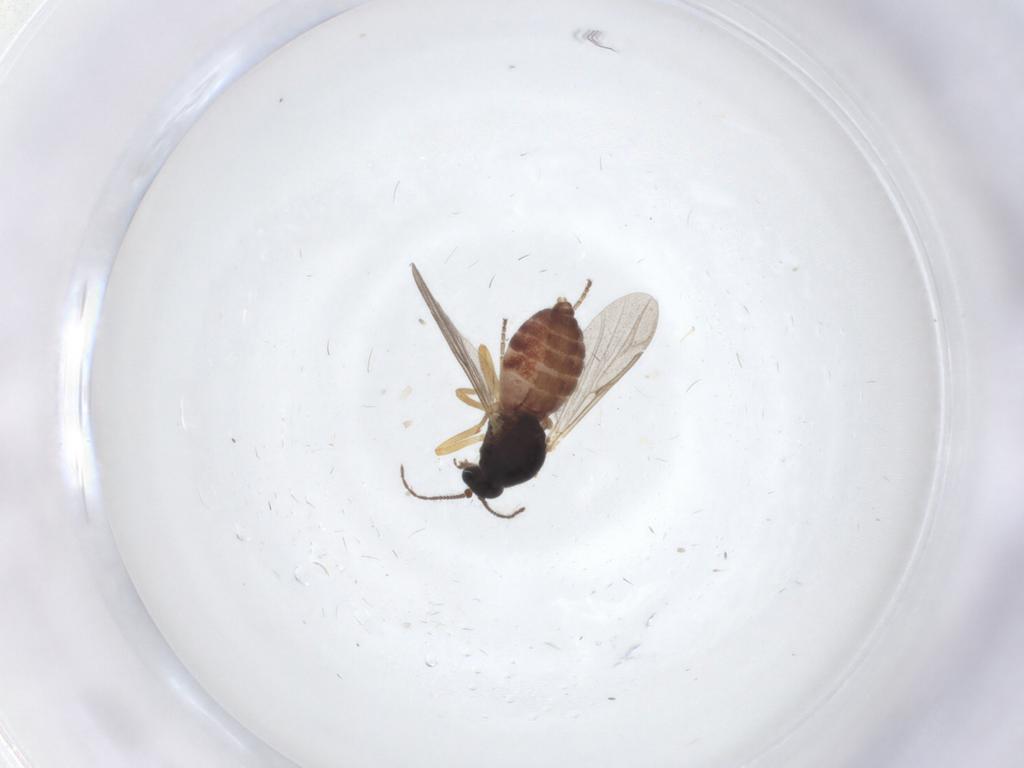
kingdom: Animalia
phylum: Arthropoda
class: Insecta
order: Diptera
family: Ceratopogonidae
